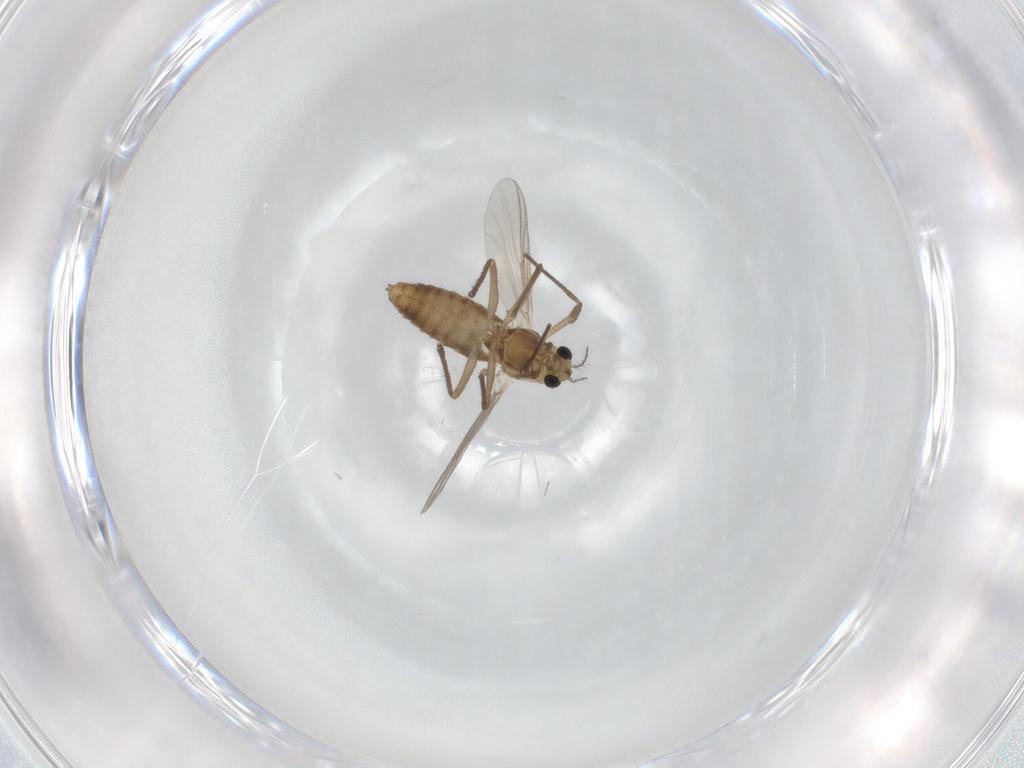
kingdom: Animalia
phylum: Arthropoda
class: Insecta
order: Diptera
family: Chironomidae
